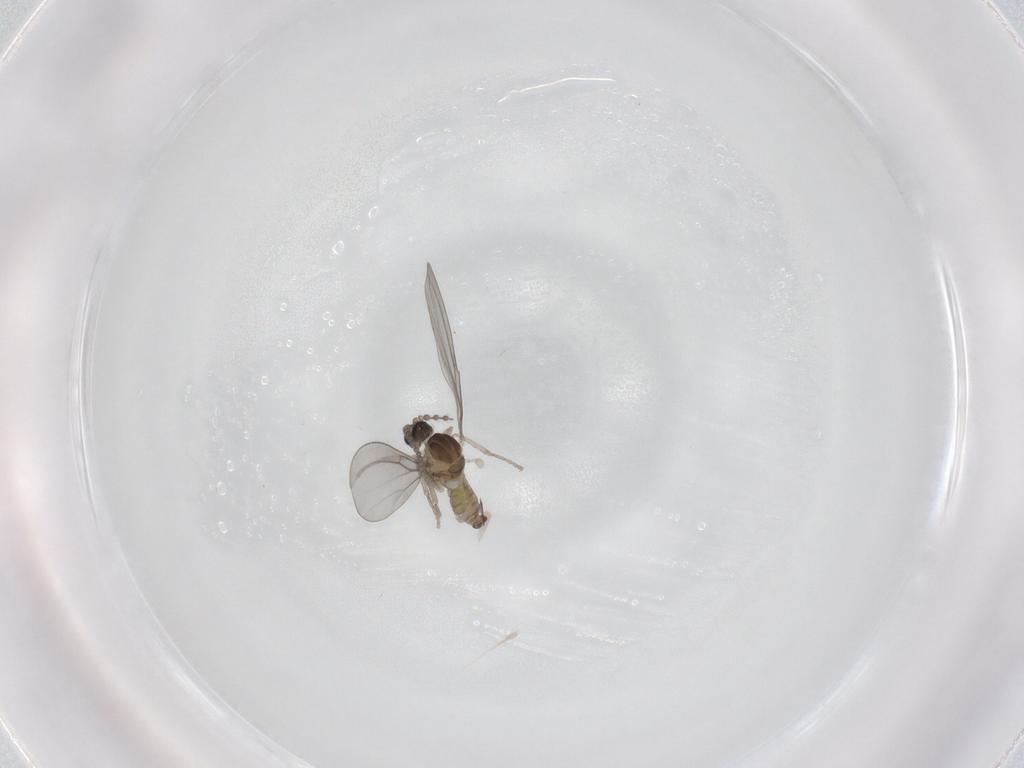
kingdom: Animalia
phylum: Arthropoda
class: Insecta
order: Diptera
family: Cecidomyiidae
